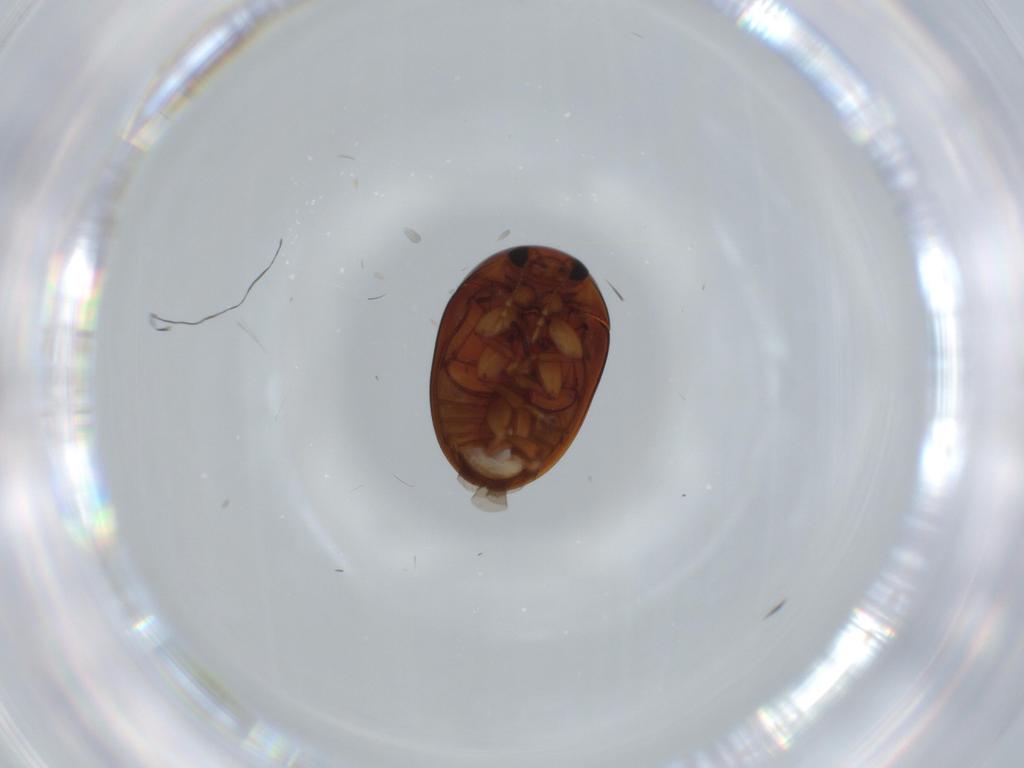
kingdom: Animalia
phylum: Arthropoda
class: Insecta
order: Coleoptera
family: Phalacridae
